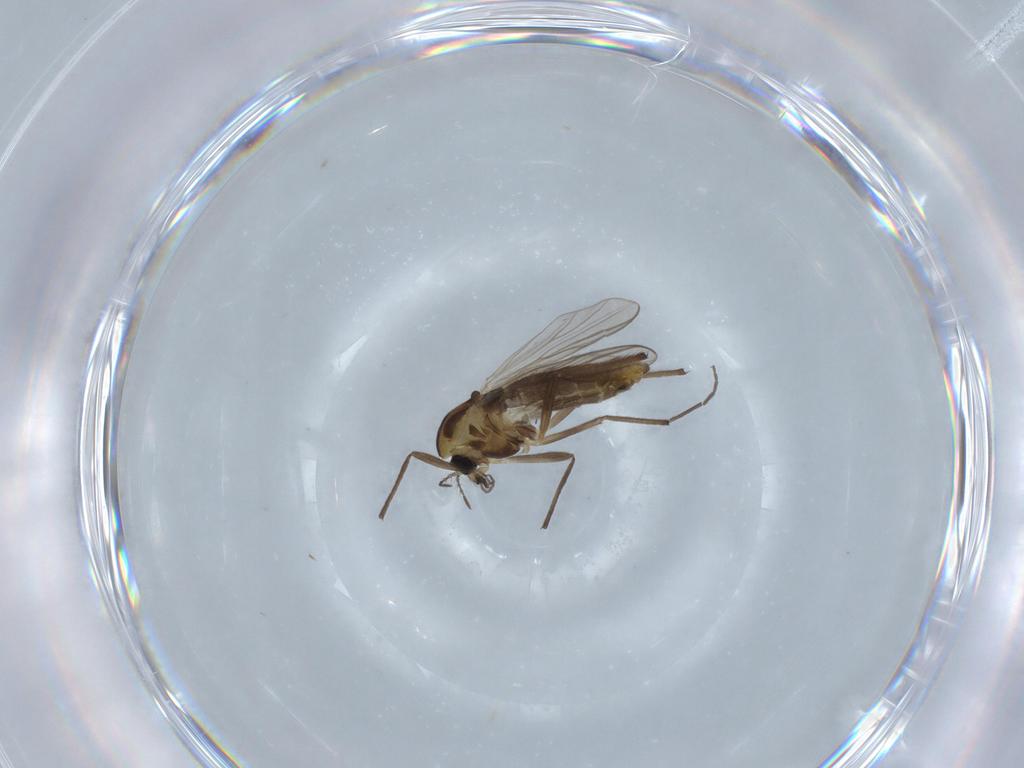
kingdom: Animalia
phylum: Arthropoda
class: Insecta
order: Diptera
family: Chironomidae
